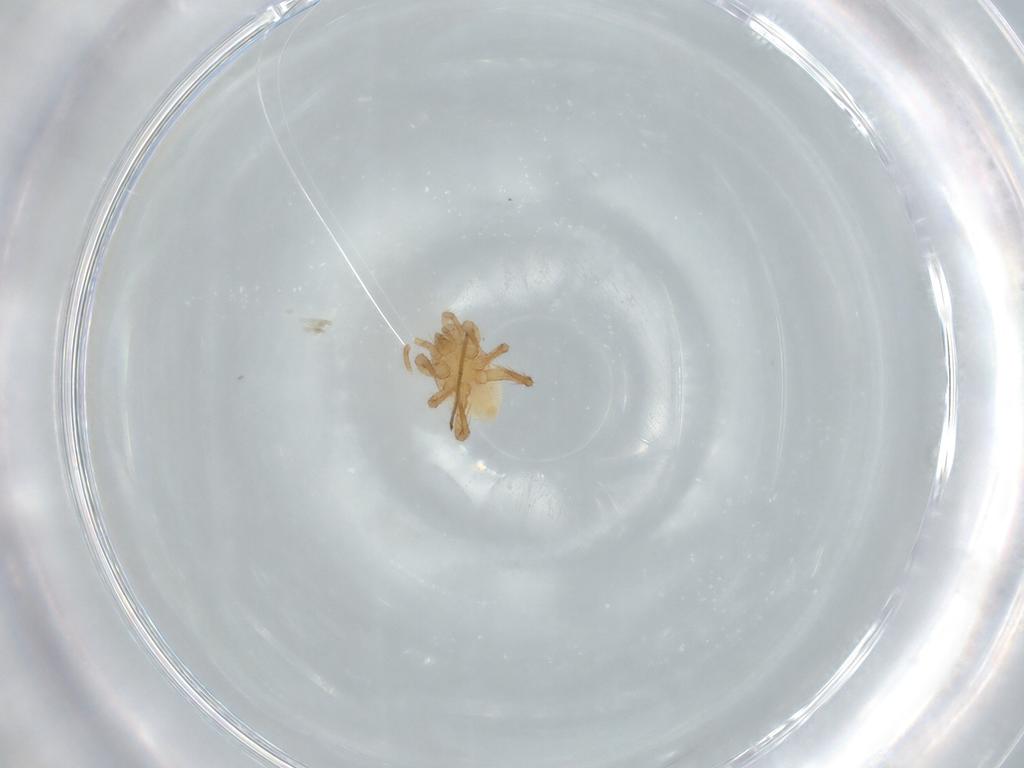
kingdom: Animalia
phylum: Arthropoda
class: Arachnida
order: Mesostigmata
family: Parasitidae
